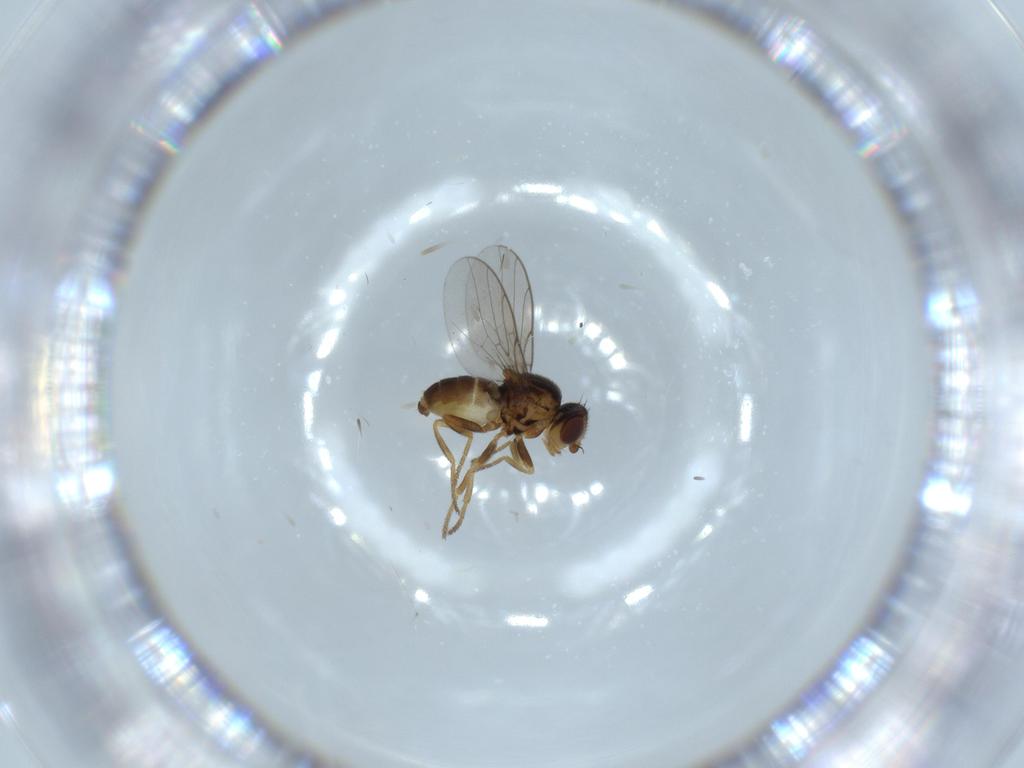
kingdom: Animalia
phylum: Arthropoda
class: Insecta
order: Diptera
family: Chloropidae
